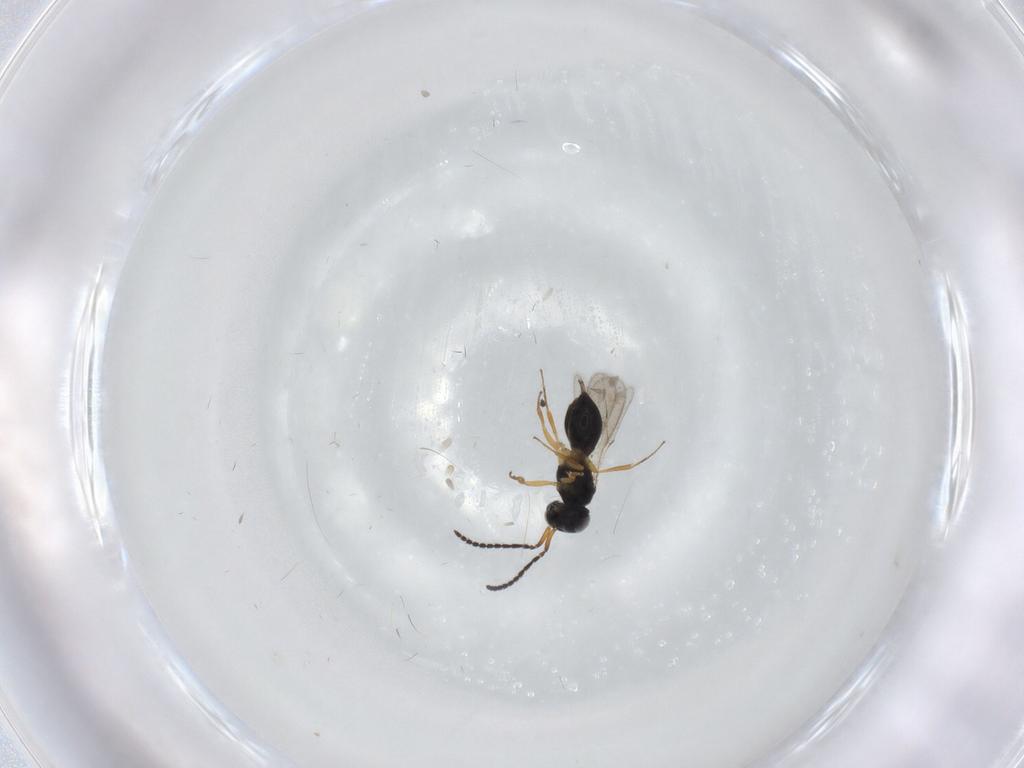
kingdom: Animalia
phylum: Arthropoda
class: Insecta
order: Hymenoptera
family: Scelionidae
